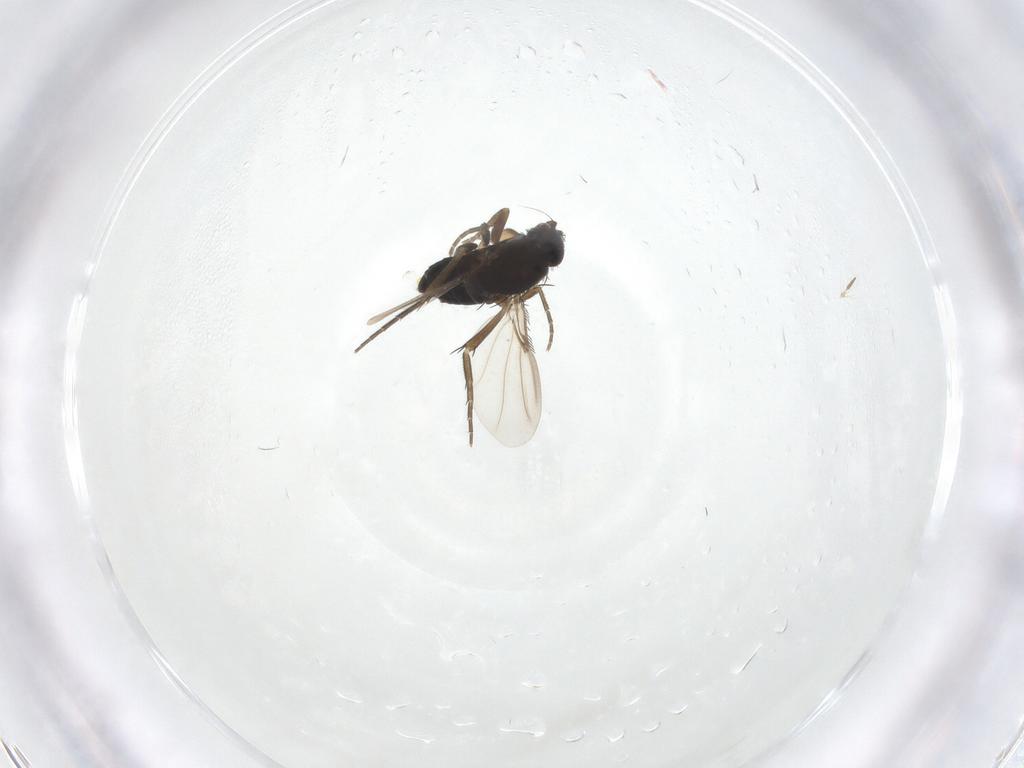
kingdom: Animalia
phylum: Arthropoda
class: Insecta
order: Diptera
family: Phoridae
